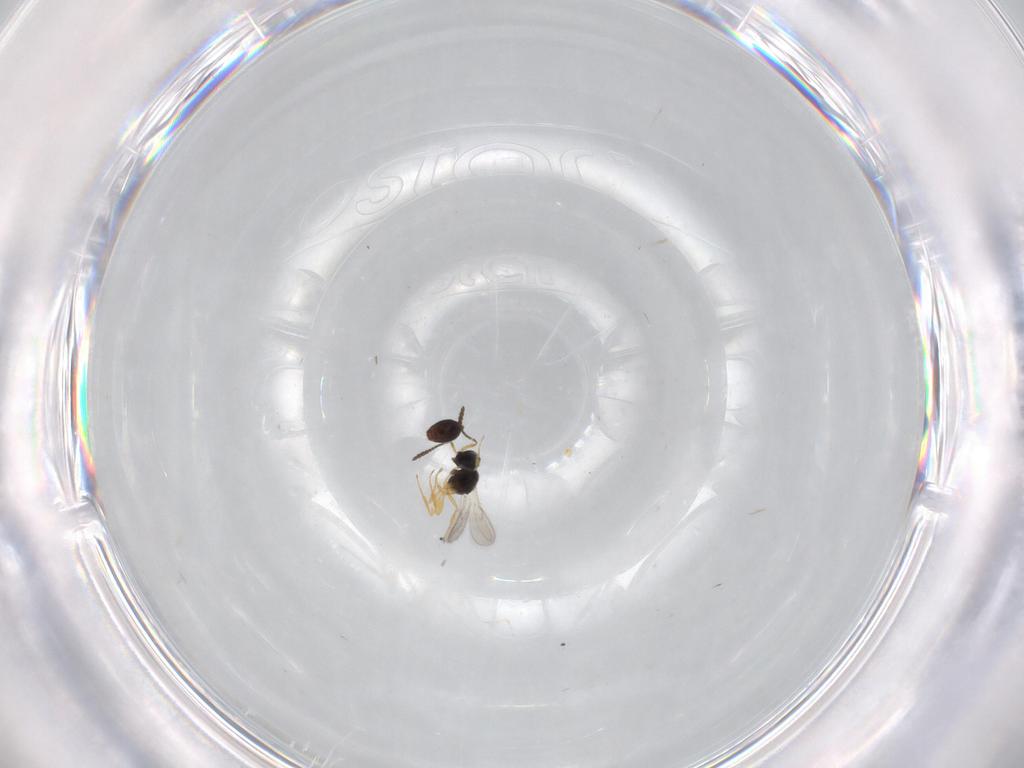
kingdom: Animalia
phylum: Arthropoda
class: Insecta
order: Hymenoptera
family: Scelionidae
